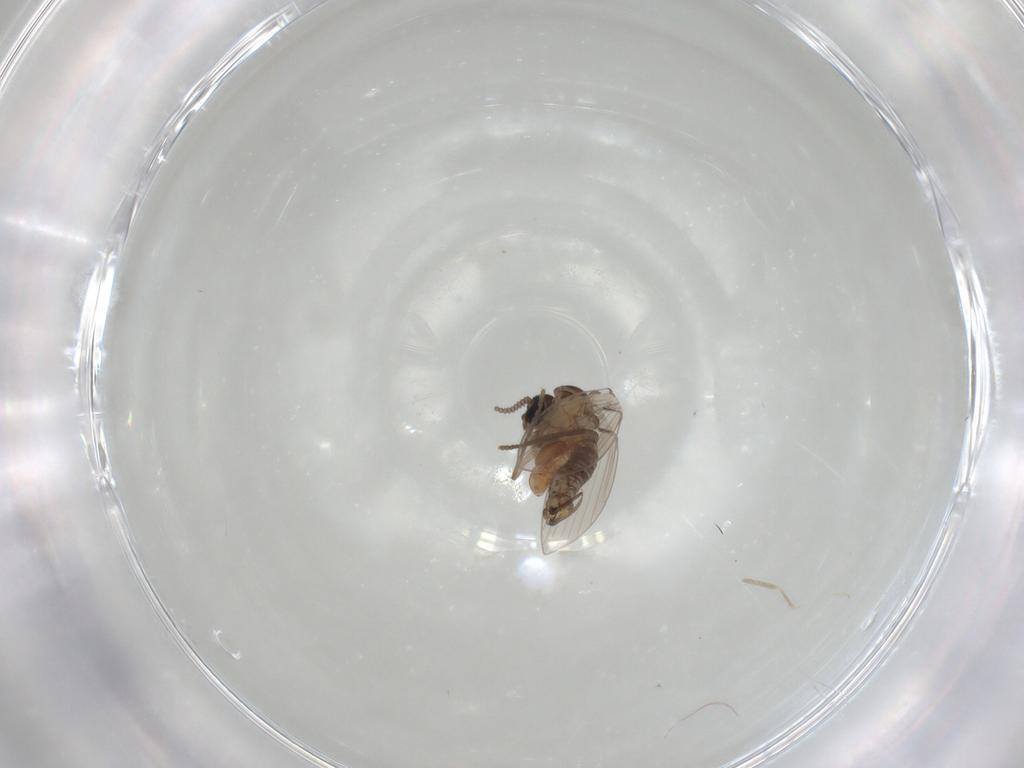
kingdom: Animalia
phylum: Arthropoda
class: Insecta
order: Diptera
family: Cecidomyiidae
